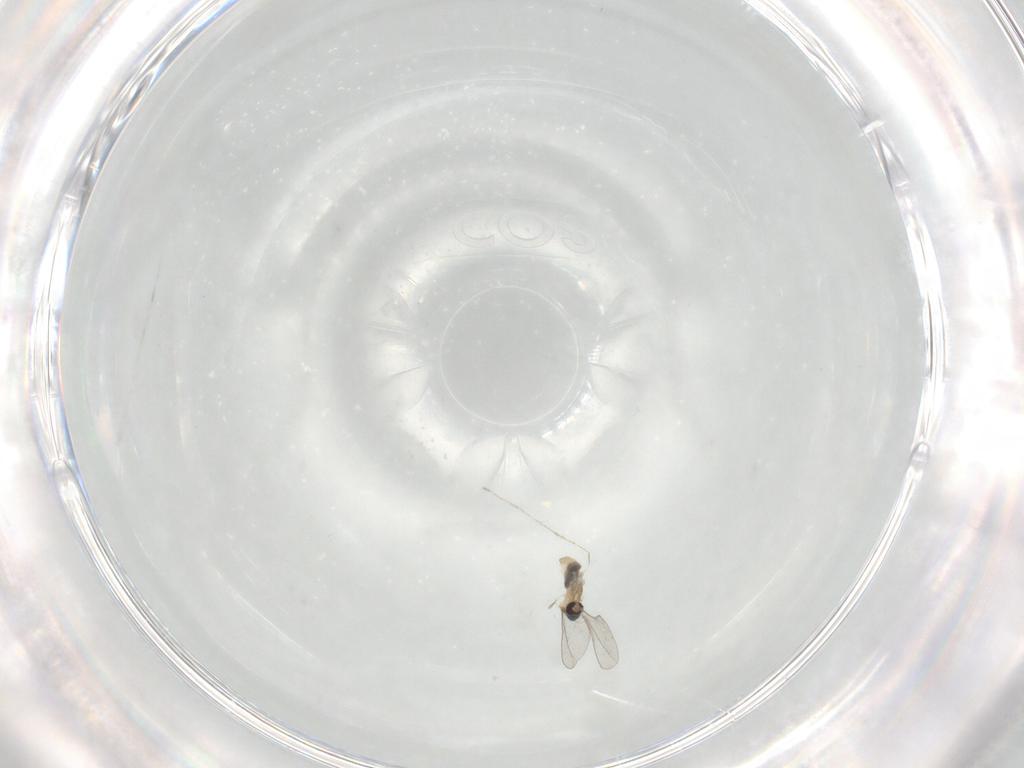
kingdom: Animalia
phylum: Arthropoda
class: Insecta
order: Diptera
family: Cecidomyiidae
